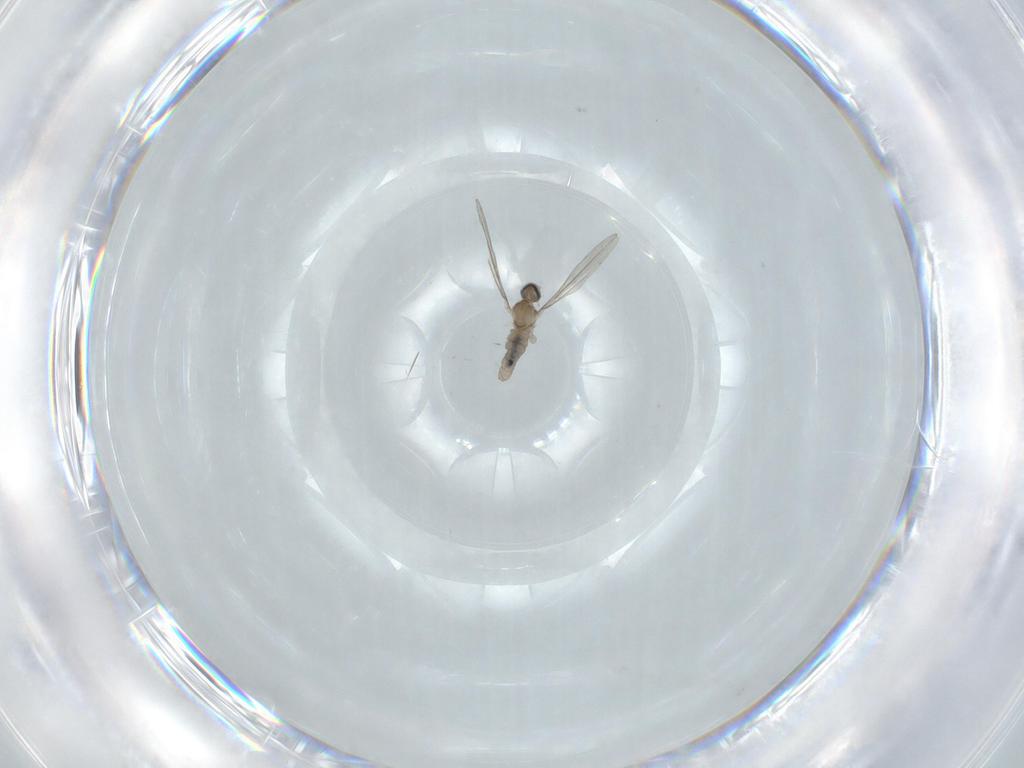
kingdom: Animalia
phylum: Arthropoda
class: Insecta
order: Diptera
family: Cecidomyiidae
